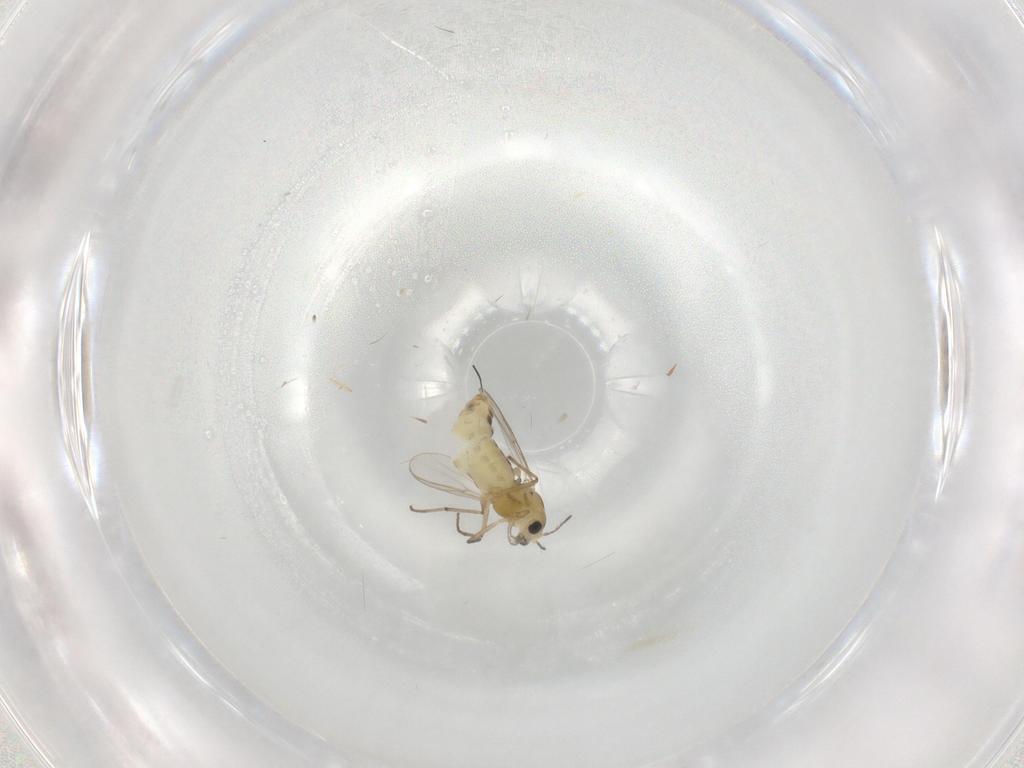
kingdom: Animalia
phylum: Arthropoda
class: Insecta
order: Diptera
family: Chironomidae
